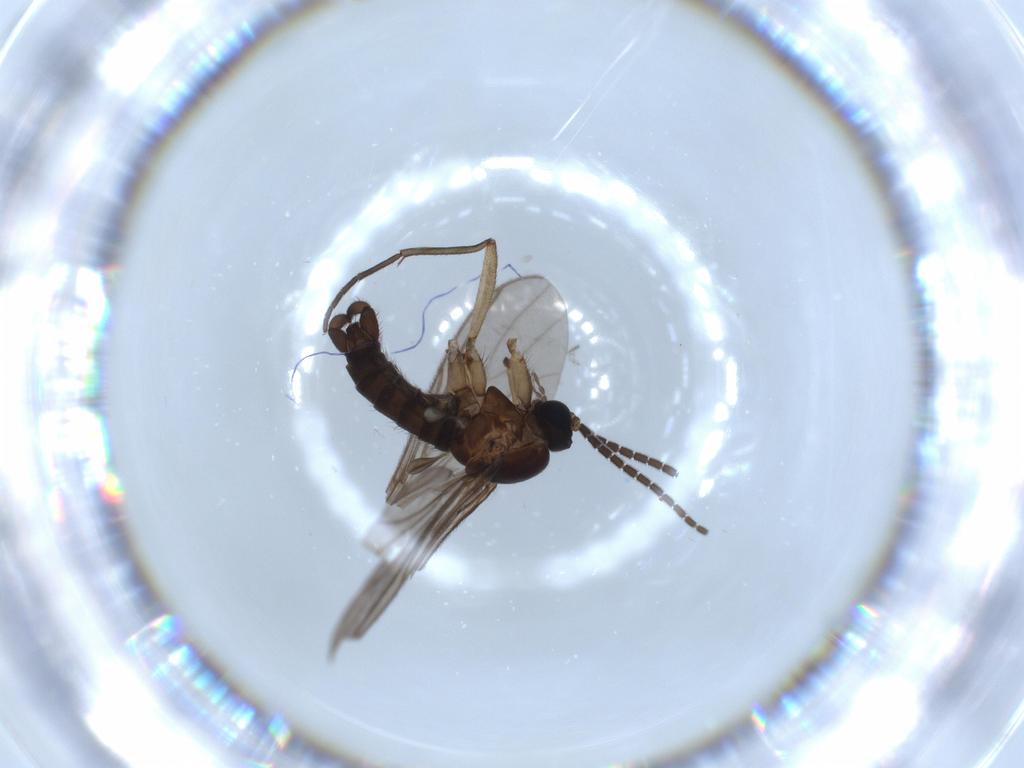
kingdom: Animalia
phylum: Arthropoda
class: Insecta
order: Diptera
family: Sciaridae
